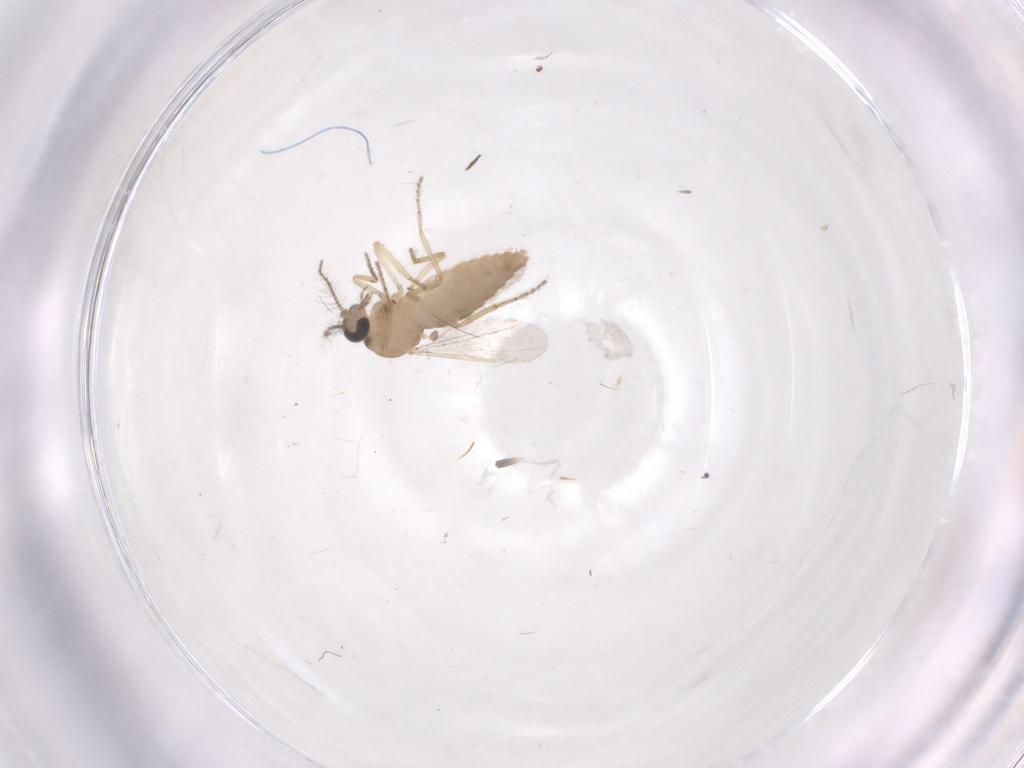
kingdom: Animalia
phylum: Arthropoda
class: Insecta
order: Diptera
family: Ceratopogonidae
